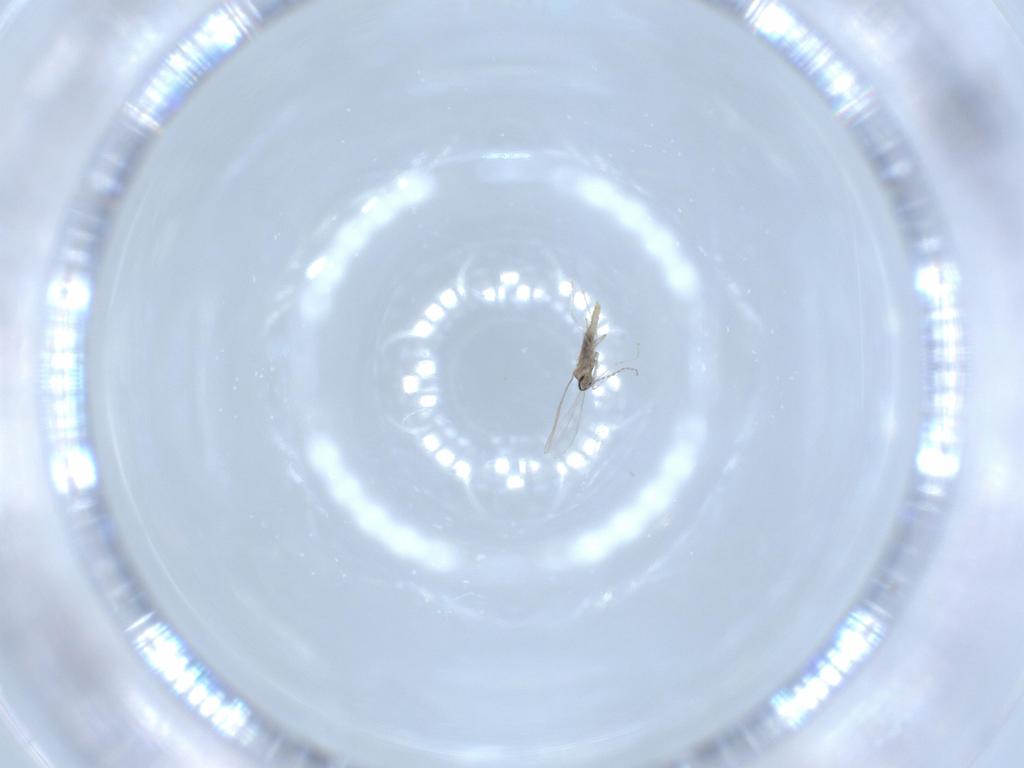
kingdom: Animalia
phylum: Arthropoda
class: Insecta
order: Diptera
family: Cecidomyiidae
